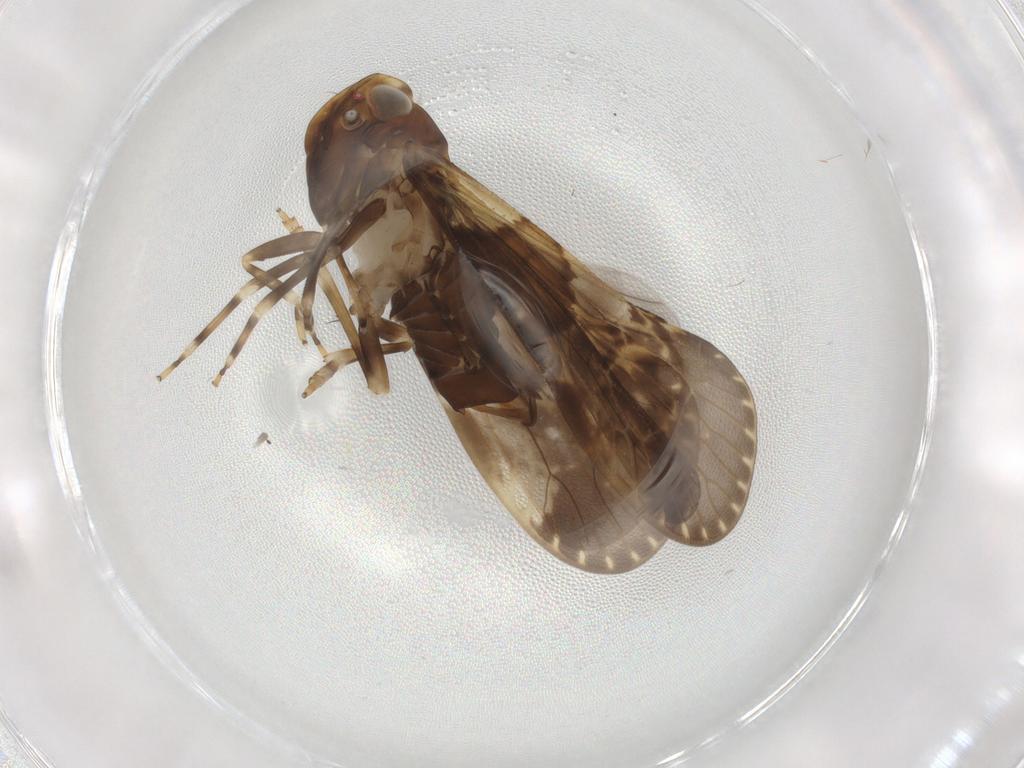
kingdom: Animalia
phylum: Arthropoda
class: Insecta
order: Hemiptera
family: Cixiidae
